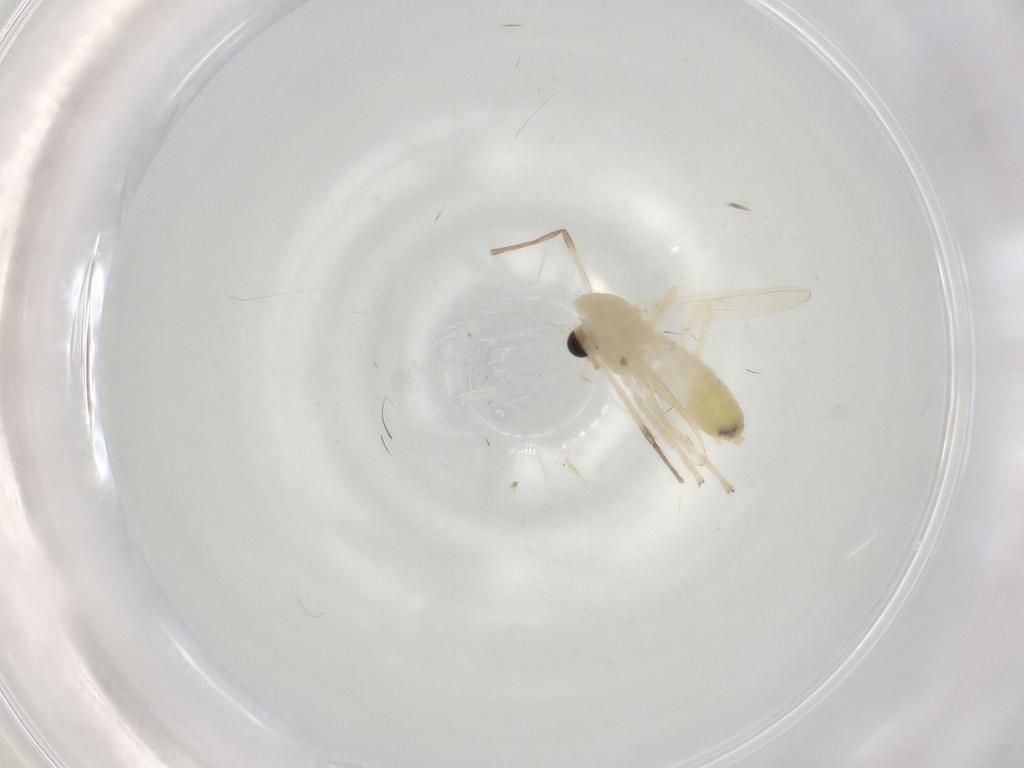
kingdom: Animalia
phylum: Arthropoda
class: Insecta
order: Diptera
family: Chironomidae
